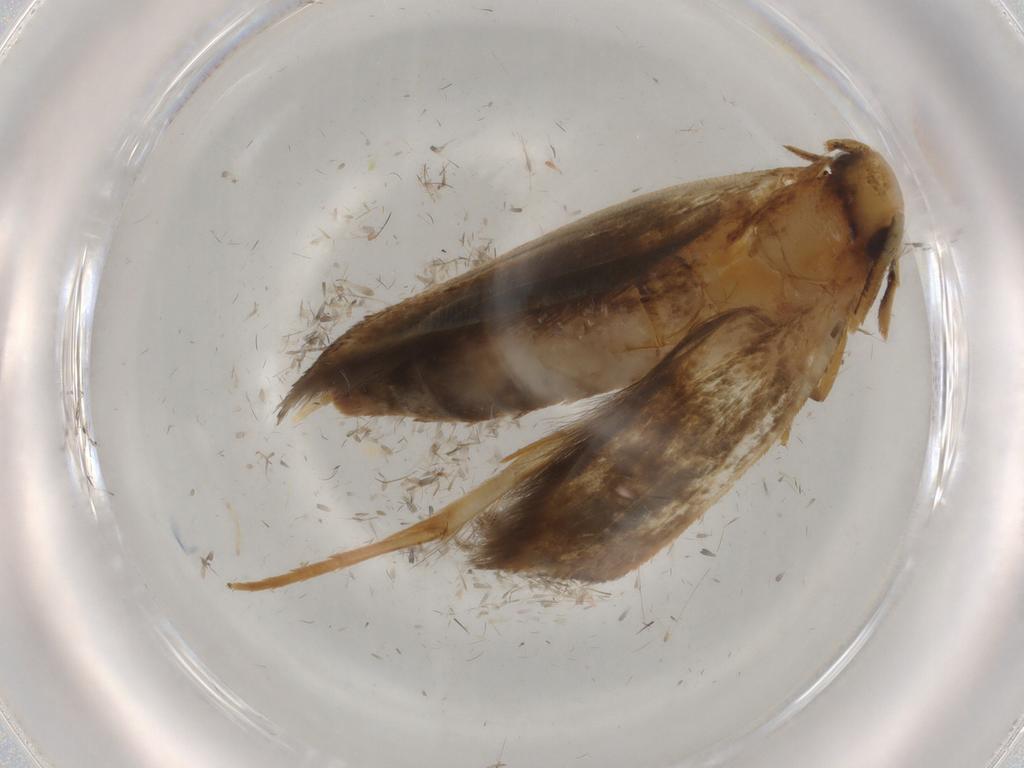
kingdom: Animalia
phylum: Arthropoda
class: Insecta
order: Lepidoptera
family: Tineidae
